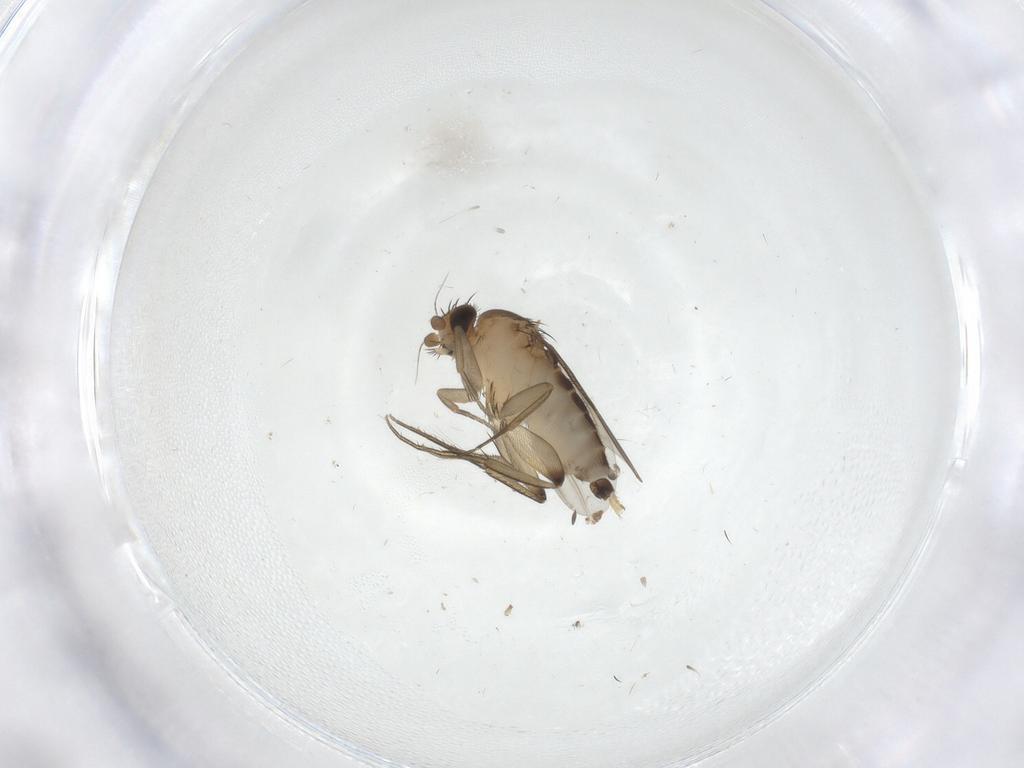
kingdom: Animalia
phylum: Arthropoda
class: Insecta
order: Diptera
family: Phoridae
